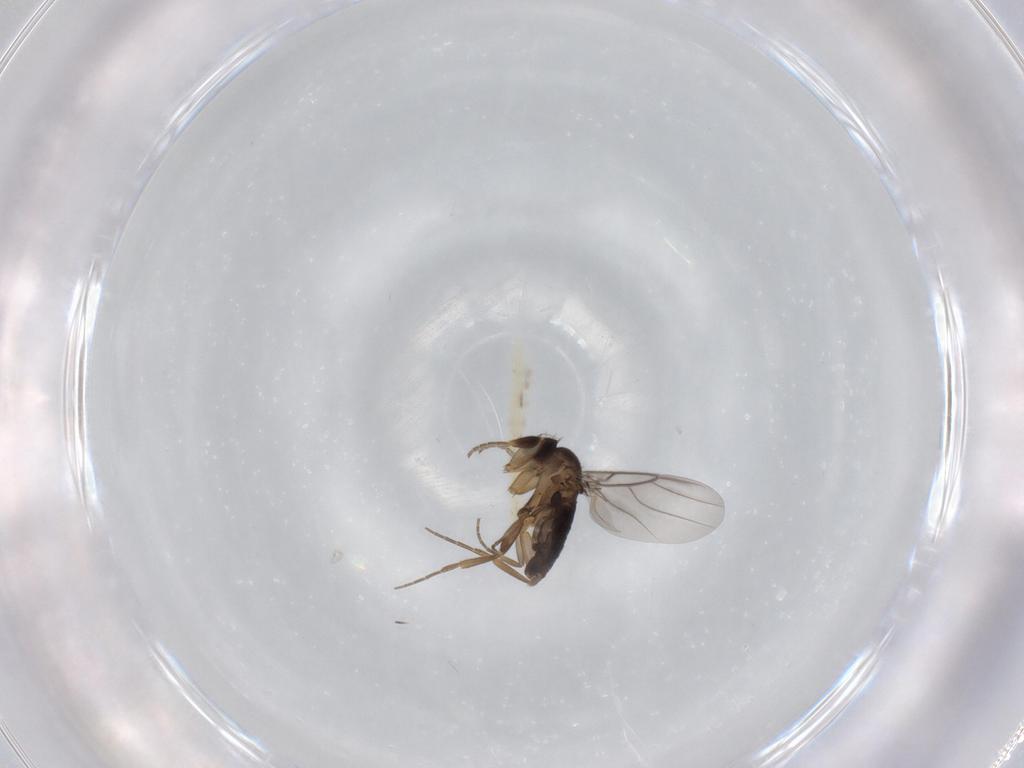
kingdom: Animalia
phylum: Arthropoda
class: Insecta
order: Diptera
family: Phoridae
